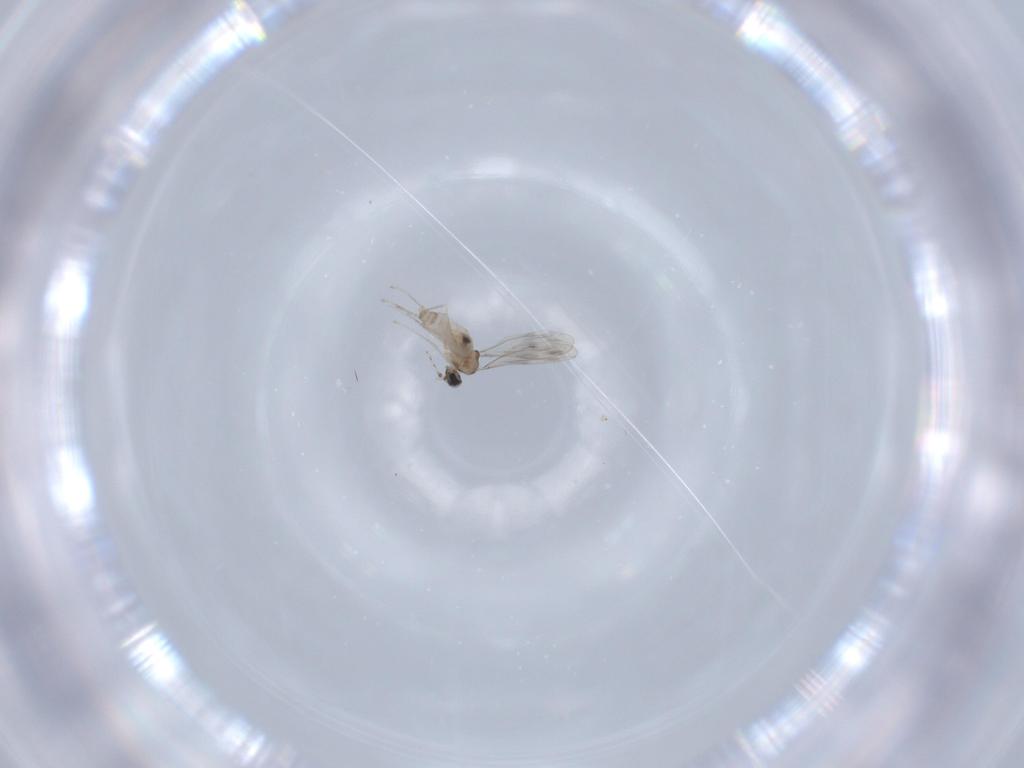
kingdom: Animalia
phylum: Arthropoda
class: Insecta
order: Diptera
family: Cecidomyiidae
